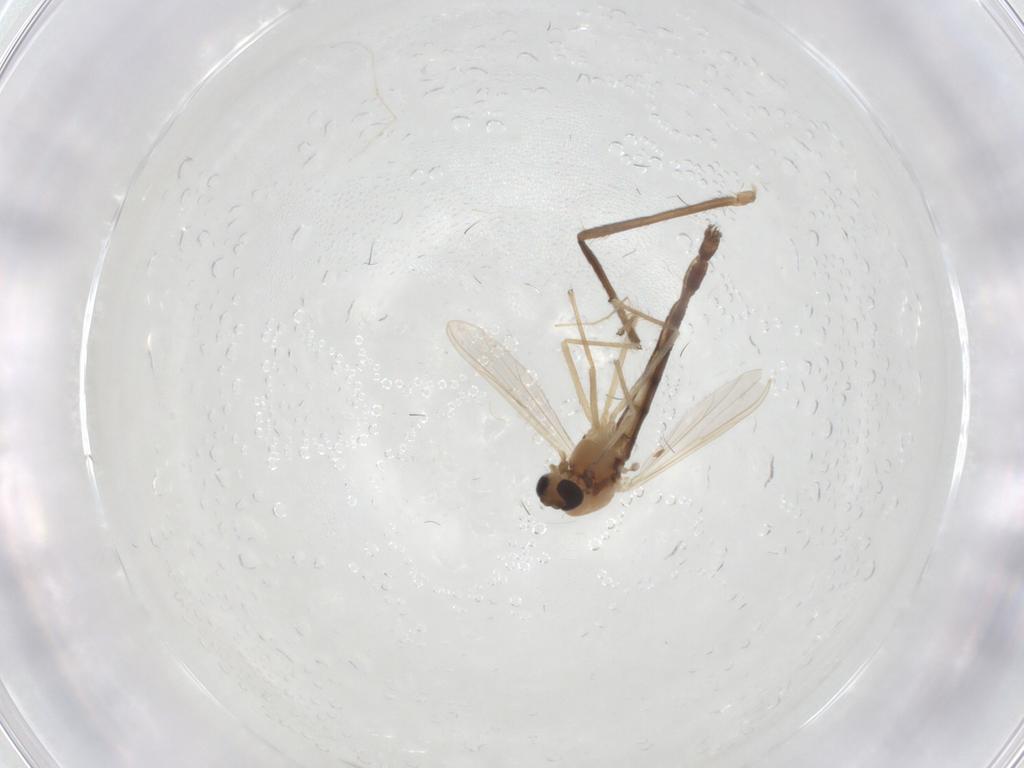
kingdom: Animalia
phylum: Arthropoda
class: Insecta
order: Diptera
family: Chironomidae
